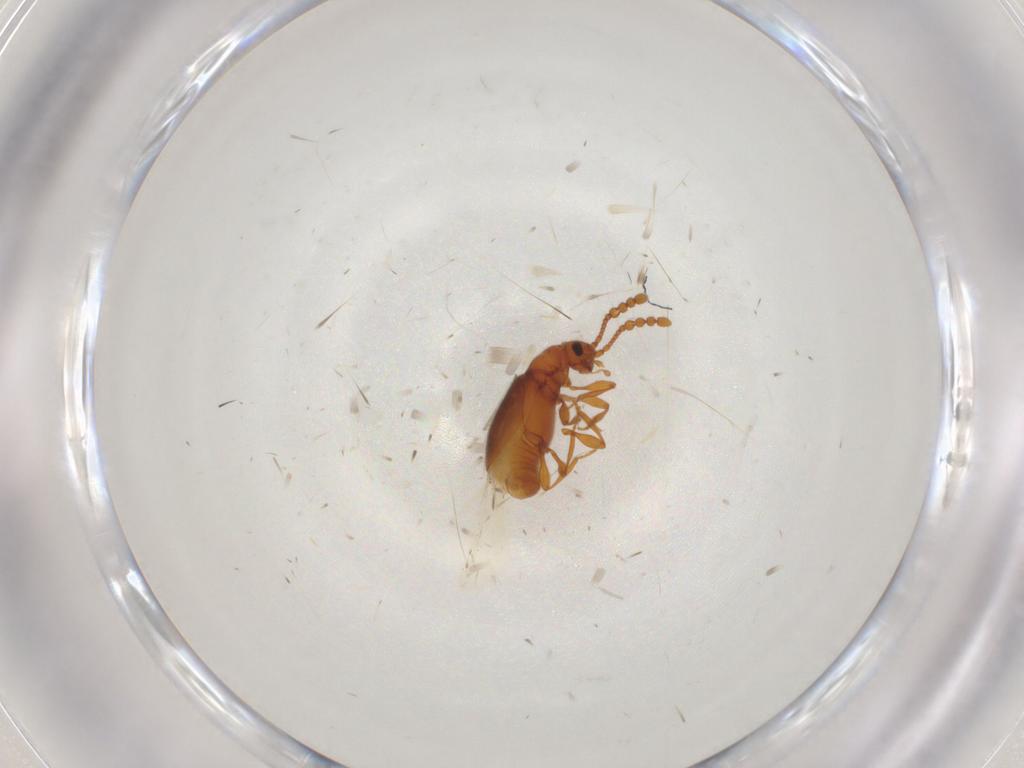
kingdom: Animalia
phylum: Arthropoda
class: Insecta
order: Coleoptera
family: Staphylinidae
